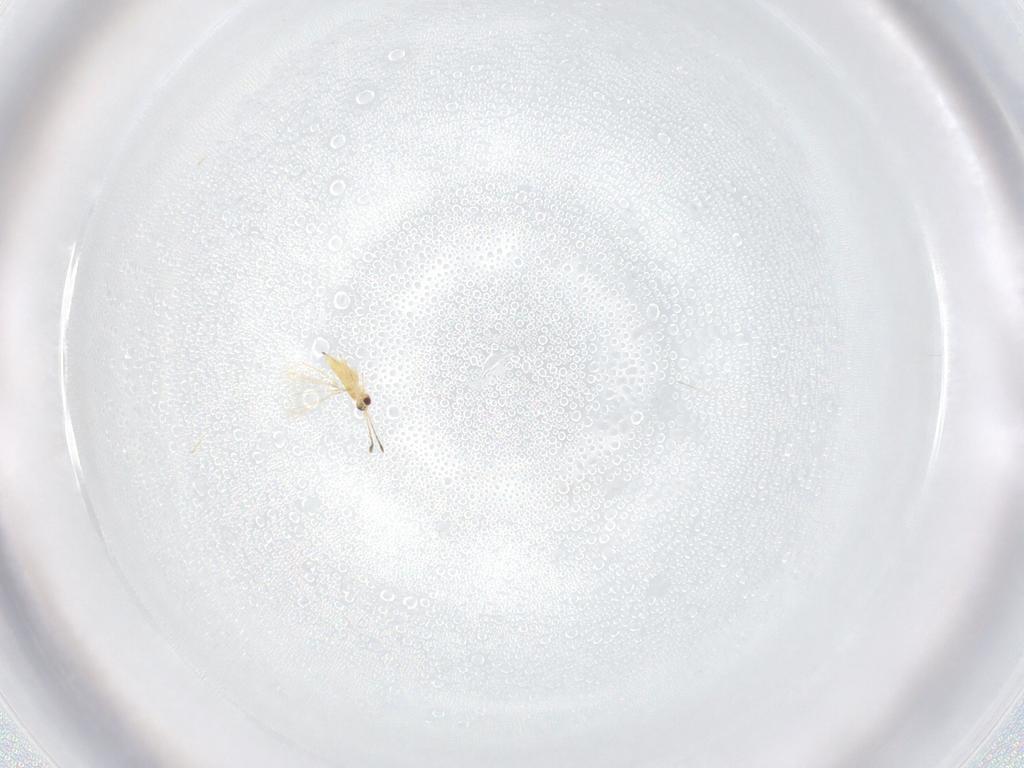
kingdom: Animalia
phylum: Arthropoda
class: Insecta
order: Hymenoptera
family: Mymaridae
